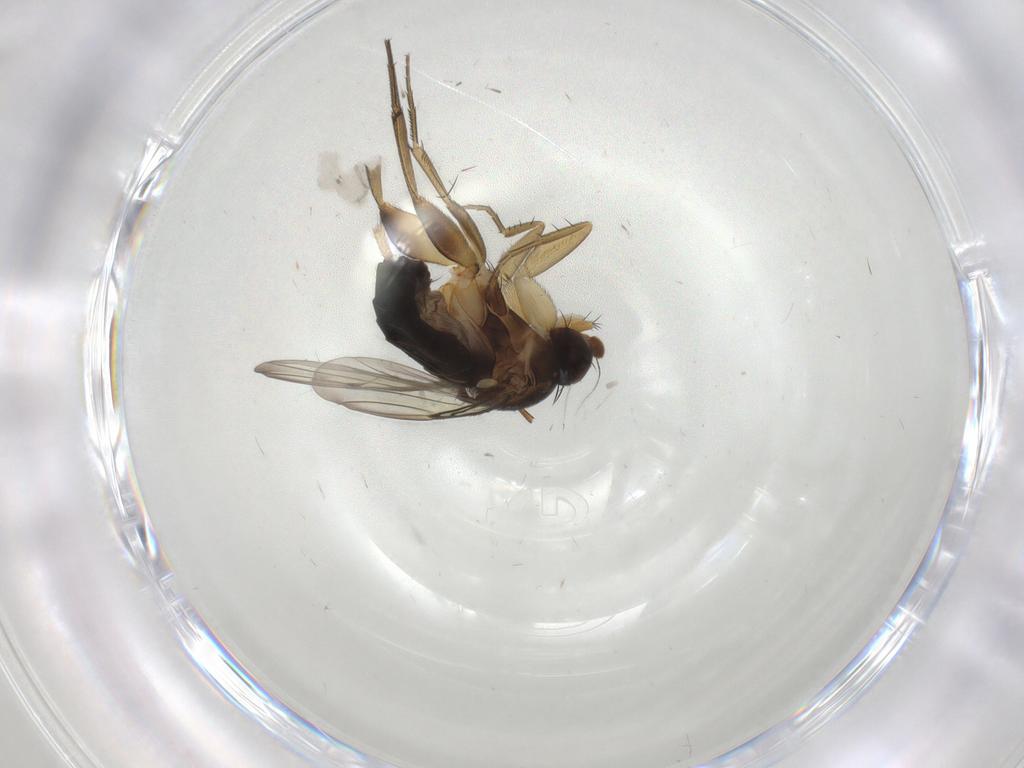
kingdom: Animalia
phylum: Arthropoda
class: Insecta
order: Diptera
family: Phoridae
